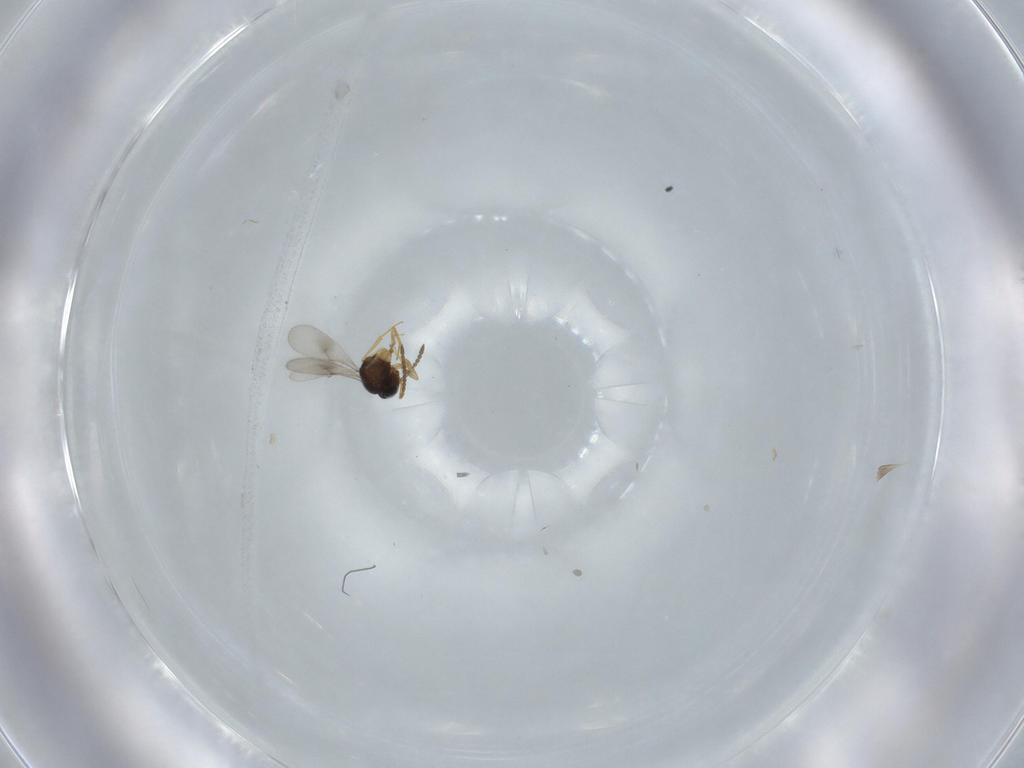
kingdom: Animalia
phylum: Arthropoda
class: Insecta
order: Hymenoptera
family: Scelionidae
